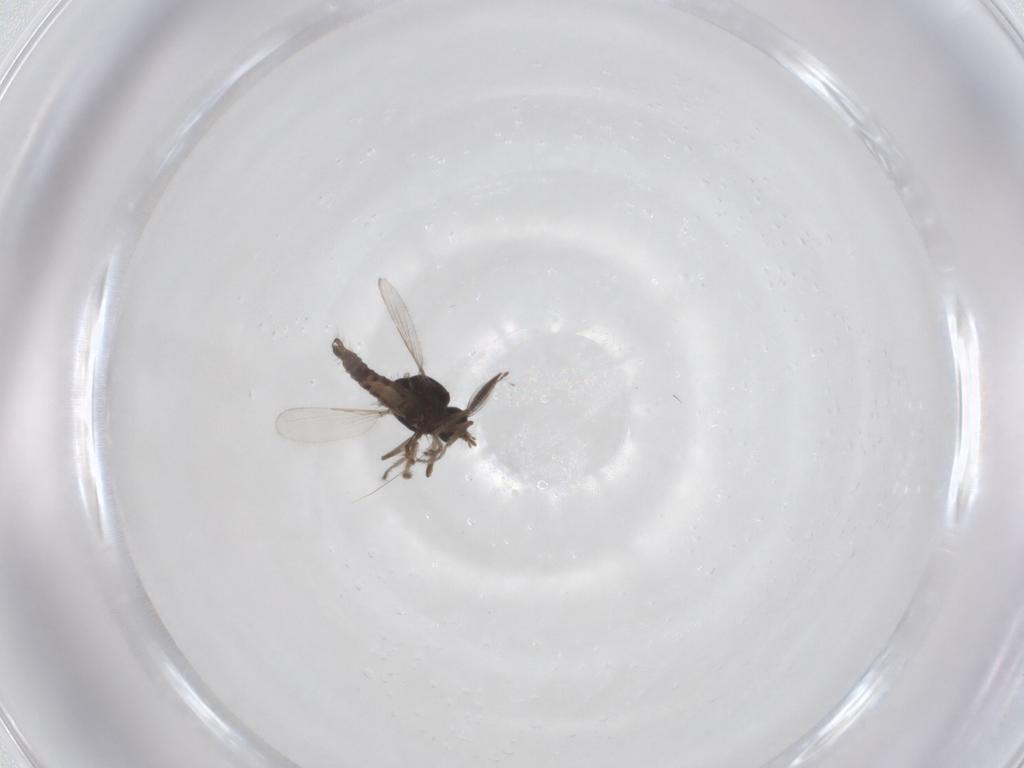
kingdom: Animalia
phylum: Arthropoda
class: Insecta
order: Diptera
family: Ceratopogonidae
